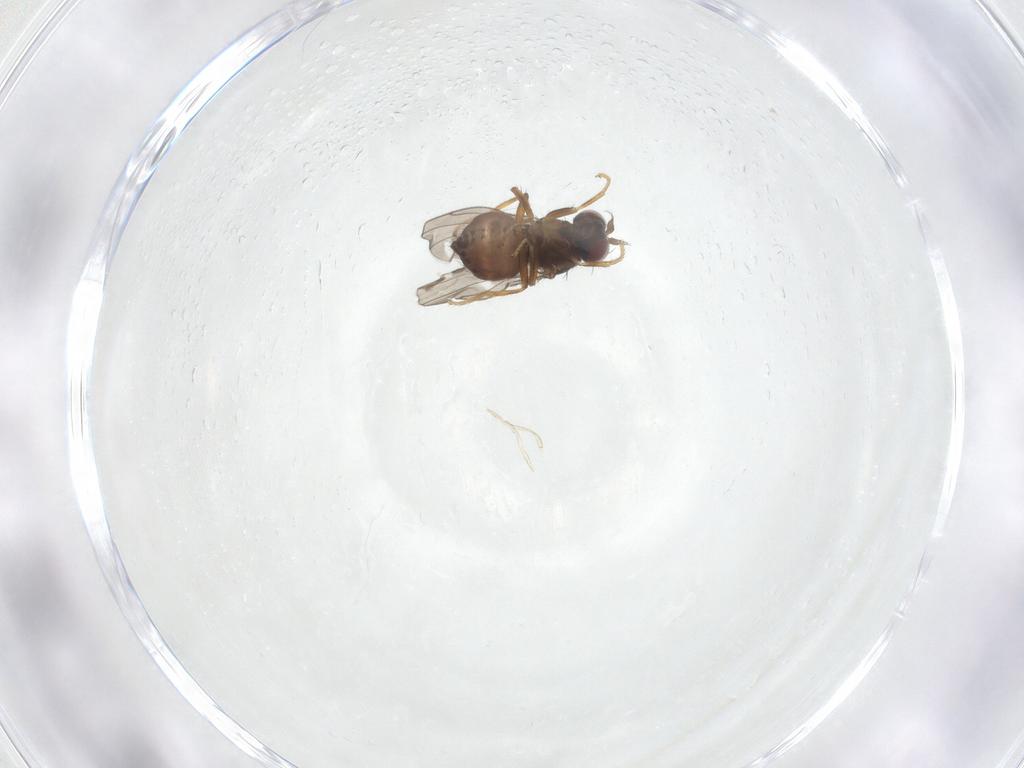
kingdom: Animalia
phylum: Arthropoda
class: Insecta
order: Diptera
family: Ephydridae
